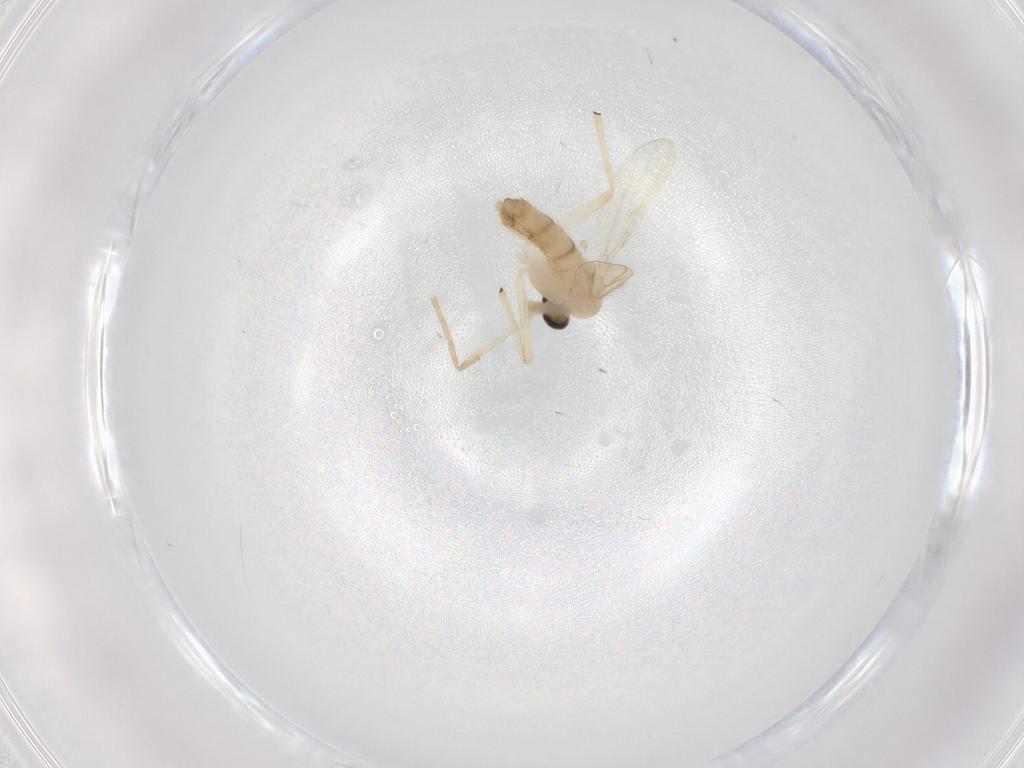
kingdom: Animalia
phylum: Arthropoda
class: Insecta
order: Diptera
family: Chironomidae
